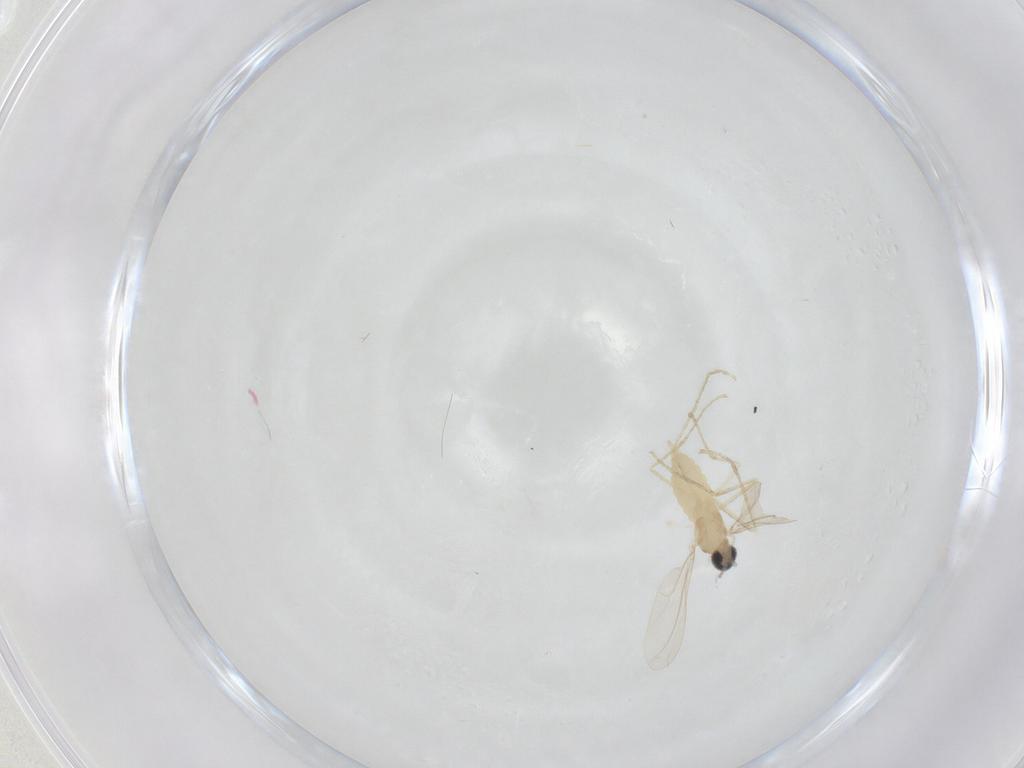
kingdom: Animalia
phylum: Arthropoda
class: Insecta
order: Diptera
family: Cecidomyiidae
